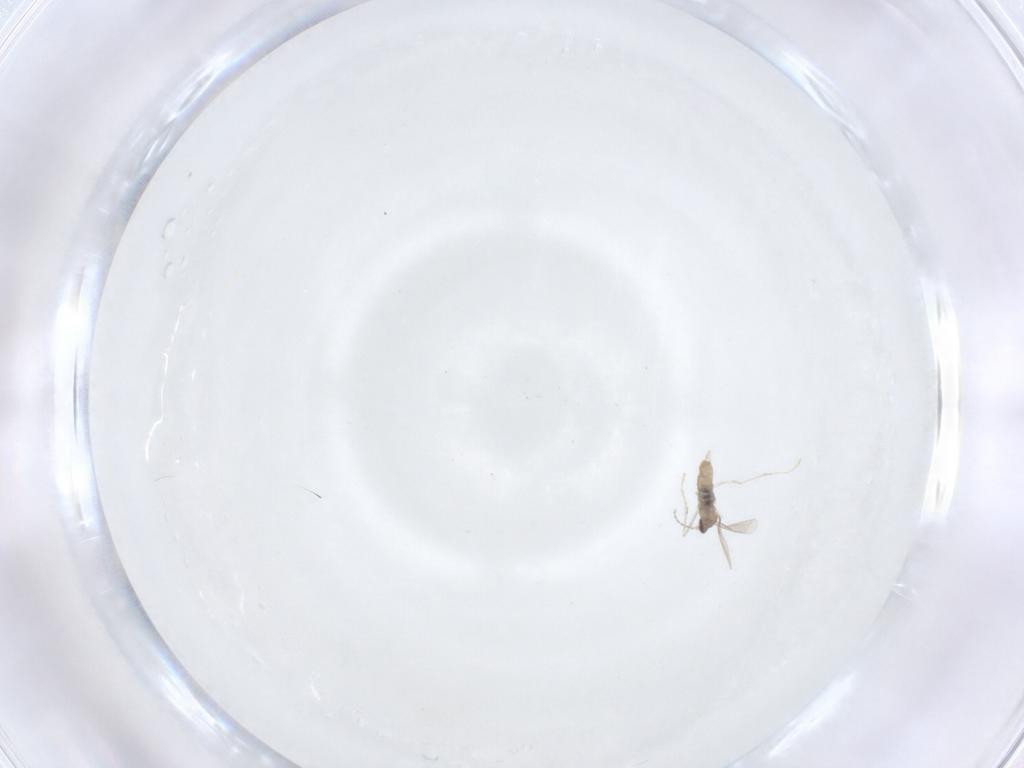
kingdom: Animalia
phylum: Arthropoda
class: Insecta
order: Diptera
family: Cecidomyiidae
